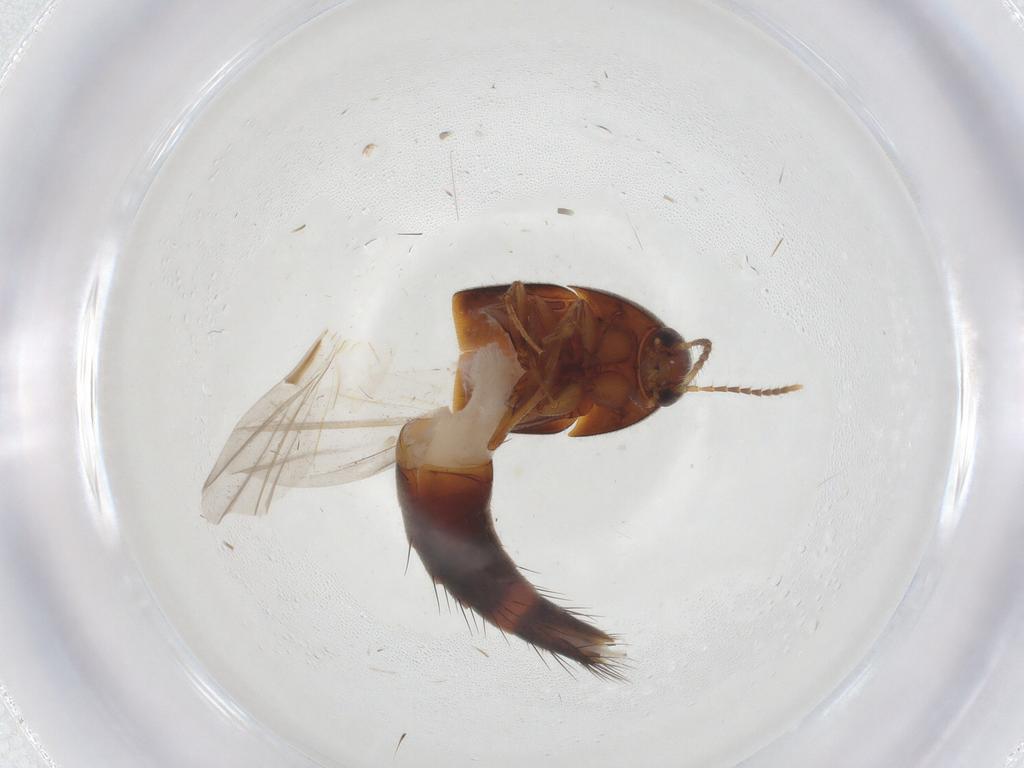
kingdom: Animalia
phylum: Arthropoda
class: Insecta
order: Coleoptera
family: Staphylinidae
